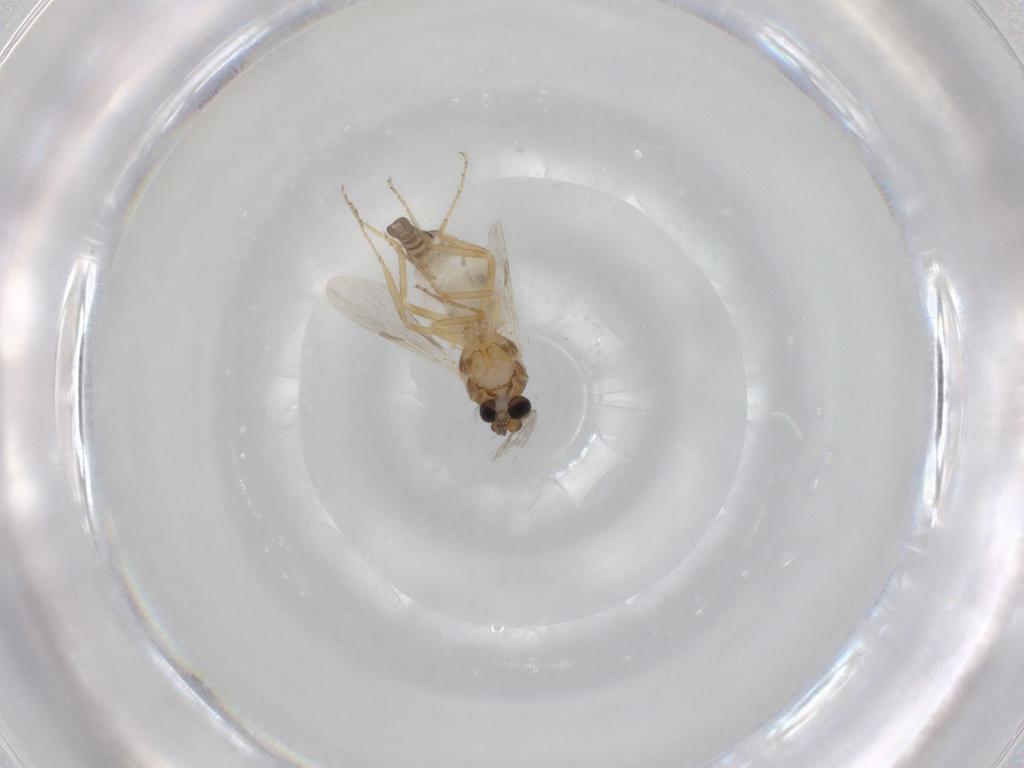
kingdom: Animalia
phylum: Arthropoda
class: Insecta
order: Diptera
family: Ceratopogonidae
